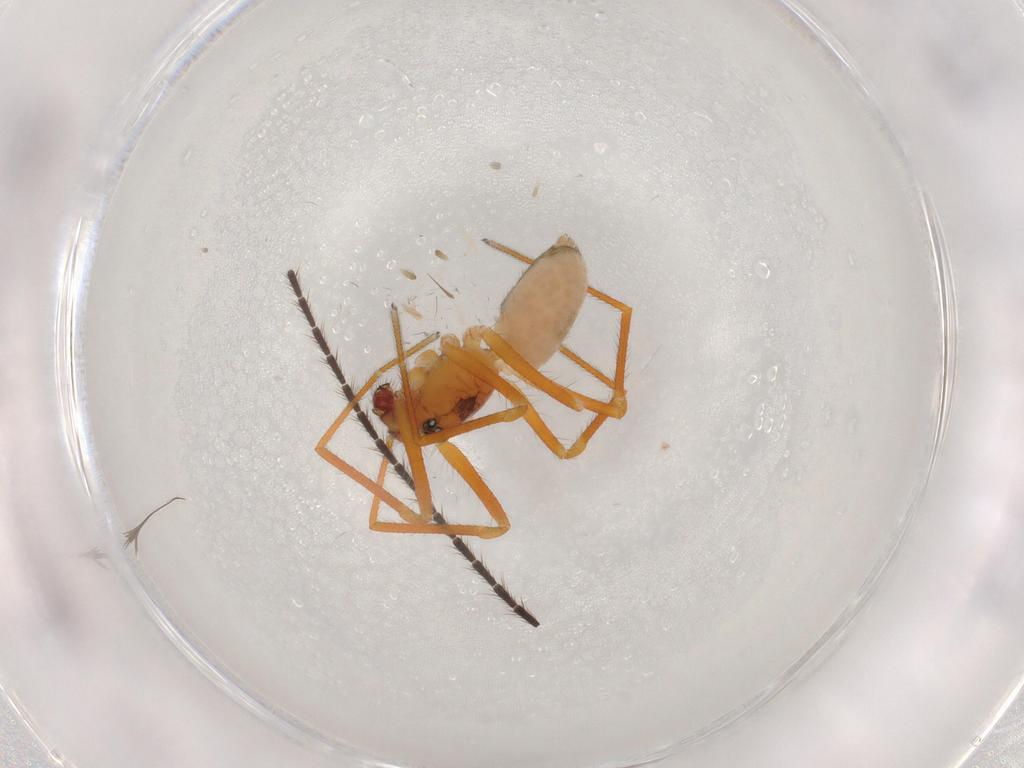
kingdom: Animalia
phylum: Arthropoda
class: Arachnida
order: Araneae
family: Linyphiidae
